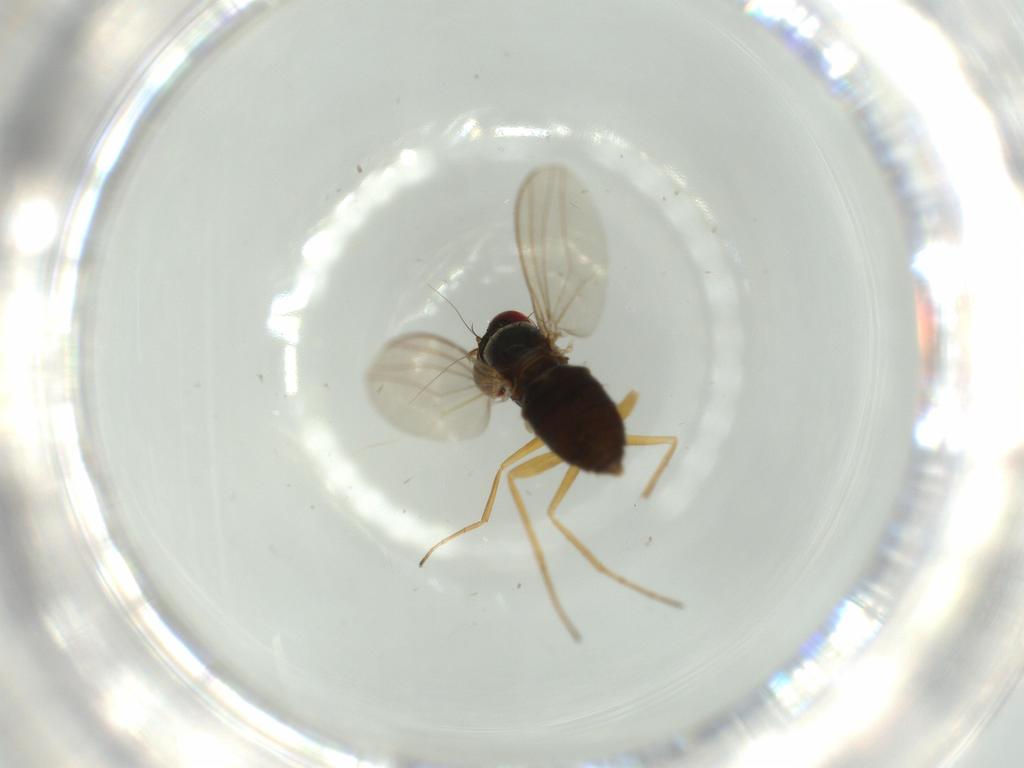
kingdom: Animalia
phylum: Arthropoda
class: Insecta
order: Diptera
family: Dolichopodidae
